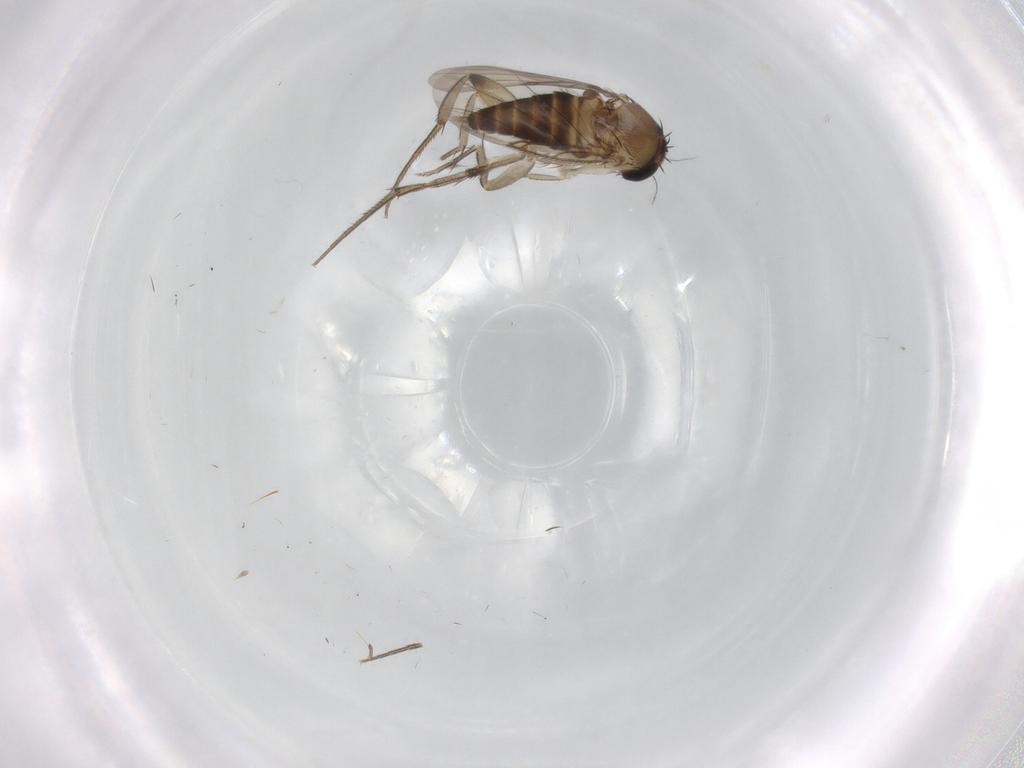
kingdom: Animalia
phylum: Arthropoda
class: Insecta
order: Diptera
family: Phoridae
